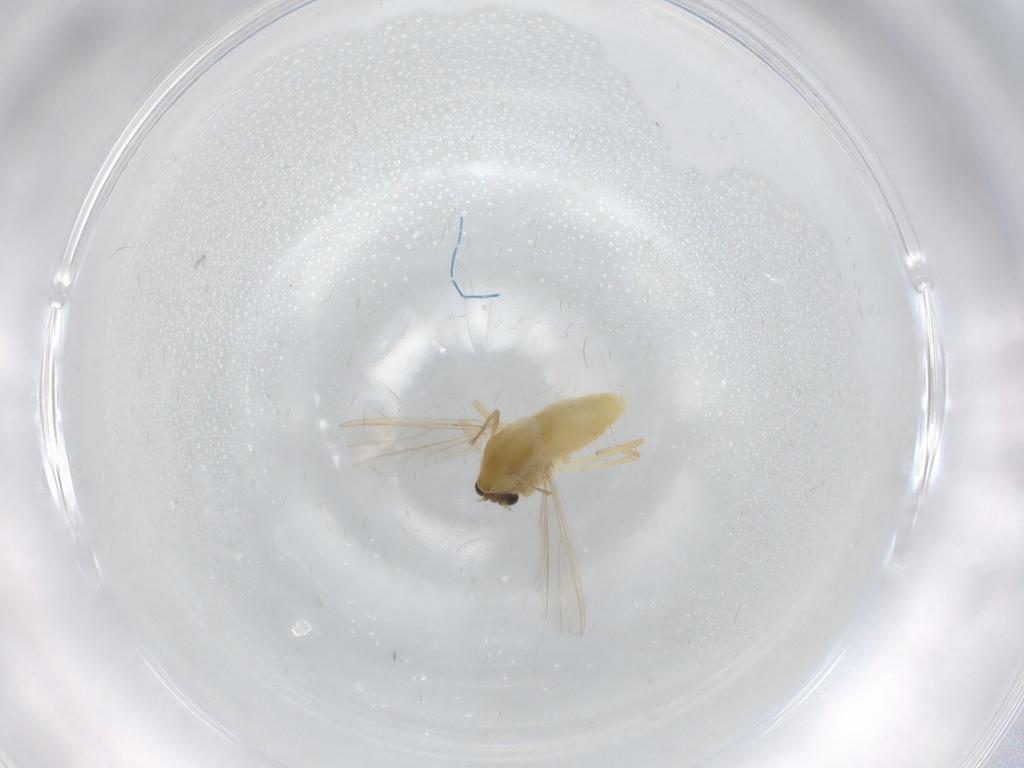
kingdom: Animalia
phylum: Arthropoda
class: Insecta
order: Diptera
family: Chironomidae
